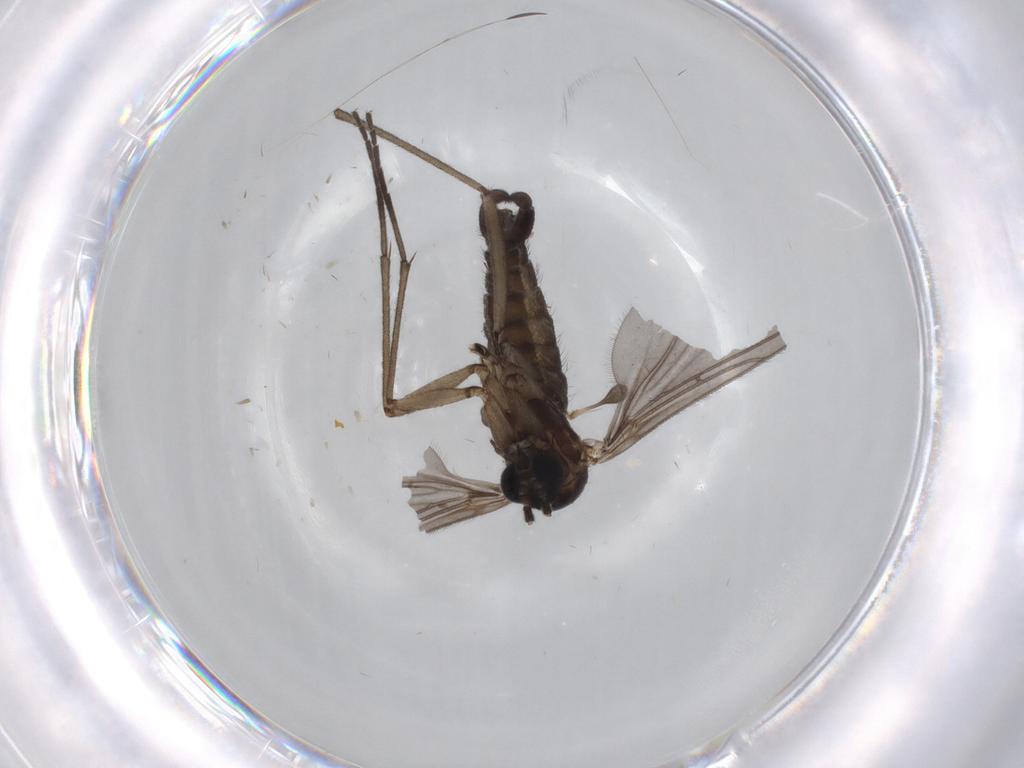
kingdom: Animalia
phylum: Arthropoda
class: Insecta
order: Diptera
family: Sciaridae
